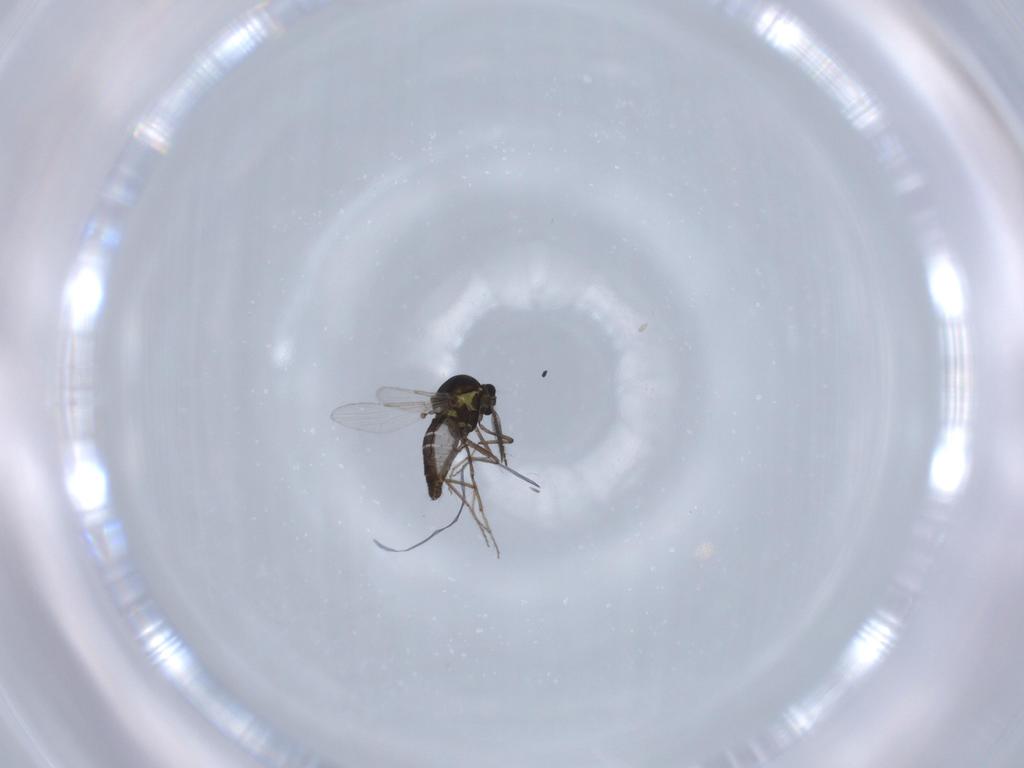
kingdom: Animalia
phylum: Arthropoda
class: Insecta
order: Diptera
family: Ceratopogonidae
